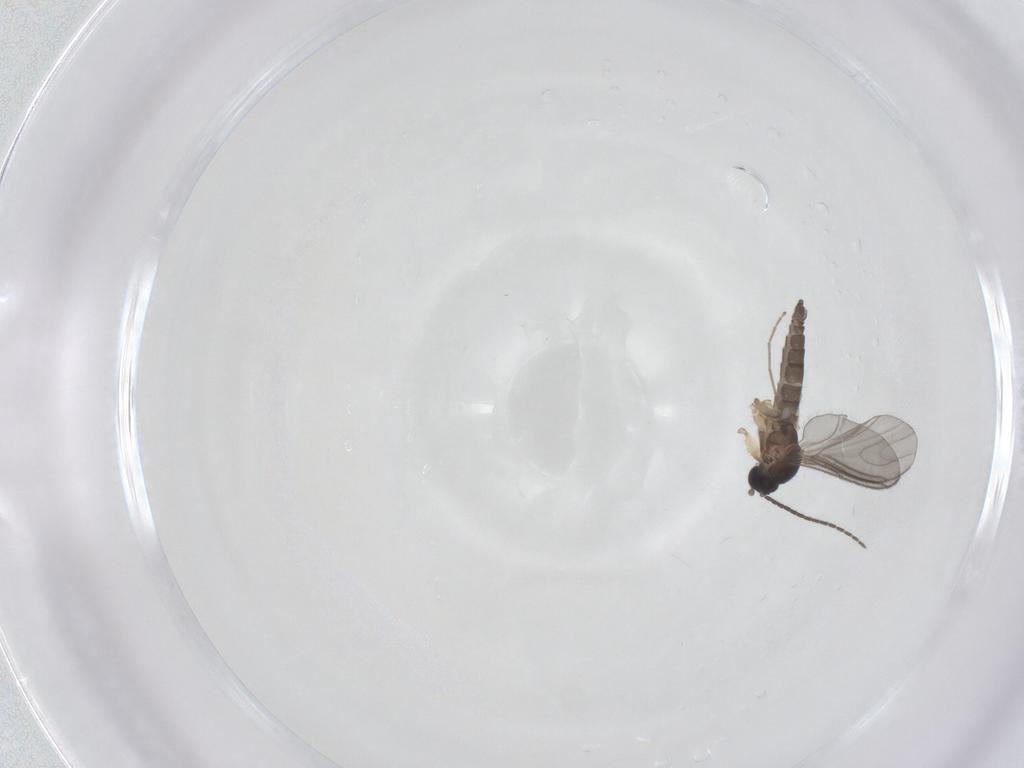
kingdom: Animalia
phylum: Arthropoda
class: Insecta
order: Diptera
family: Sciaridae
